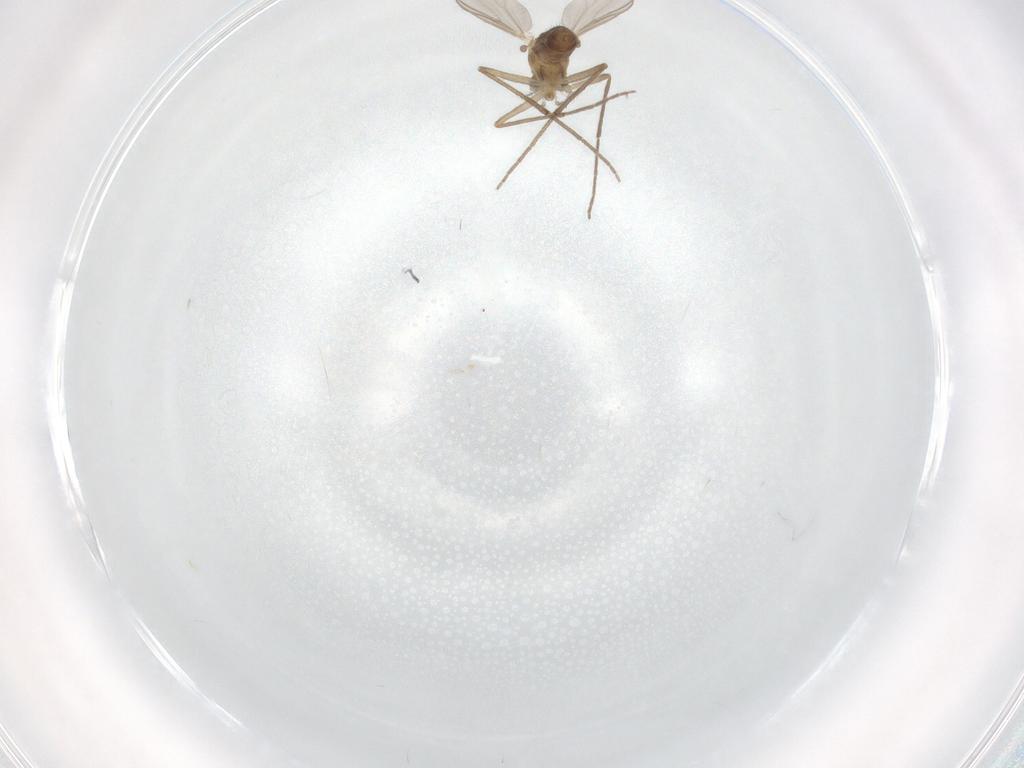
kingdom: Animalia
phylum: Arthropoda
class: Insecta
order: Diptera
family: Chironomidae
